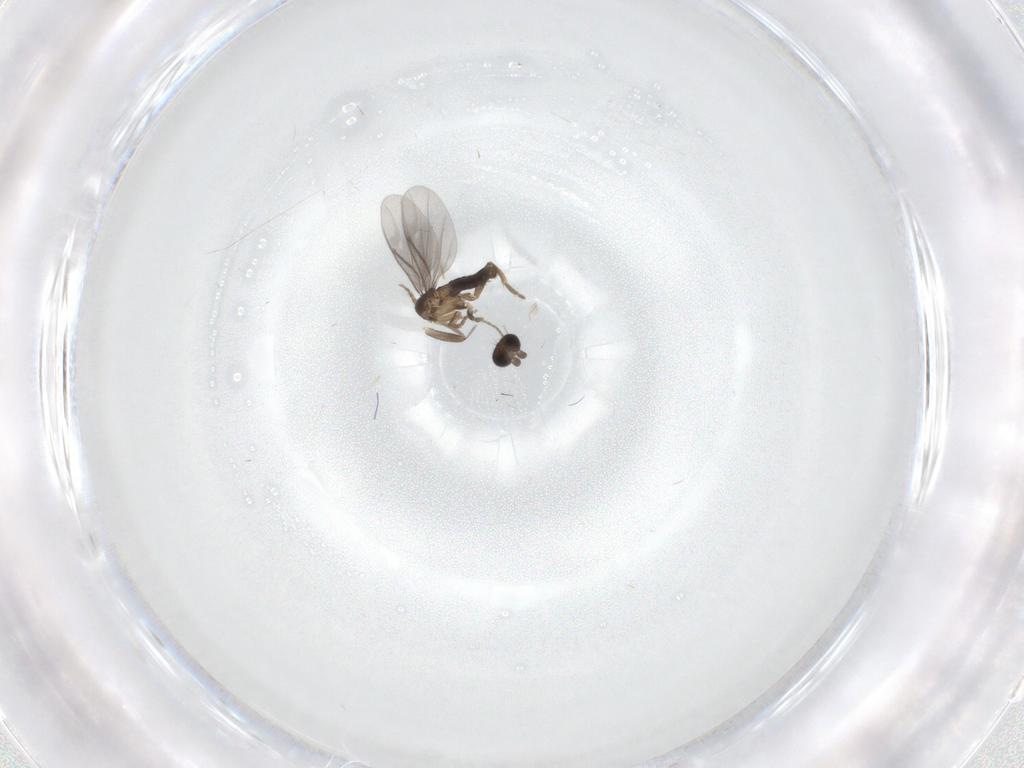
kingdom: Animalia
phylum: Arthropoda
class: Insecta
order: Diptera
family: Cecidomyiidae
